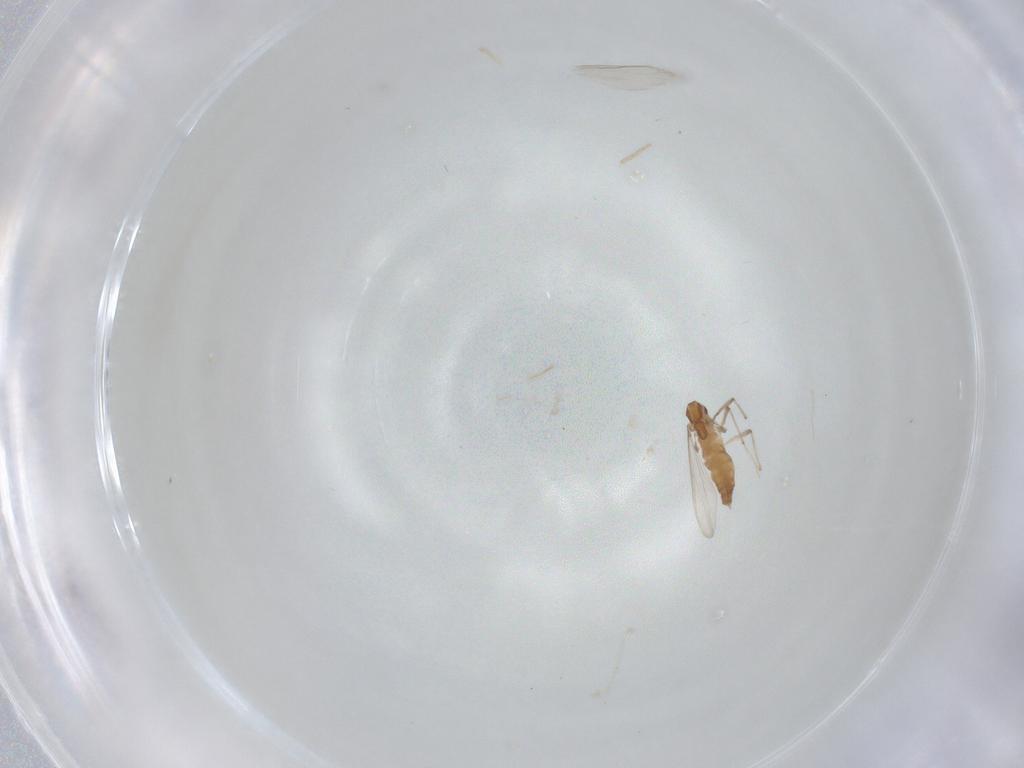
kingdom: Animalia
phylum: Arthropoda
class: Insecta
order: Diptera
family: Chironomidae
